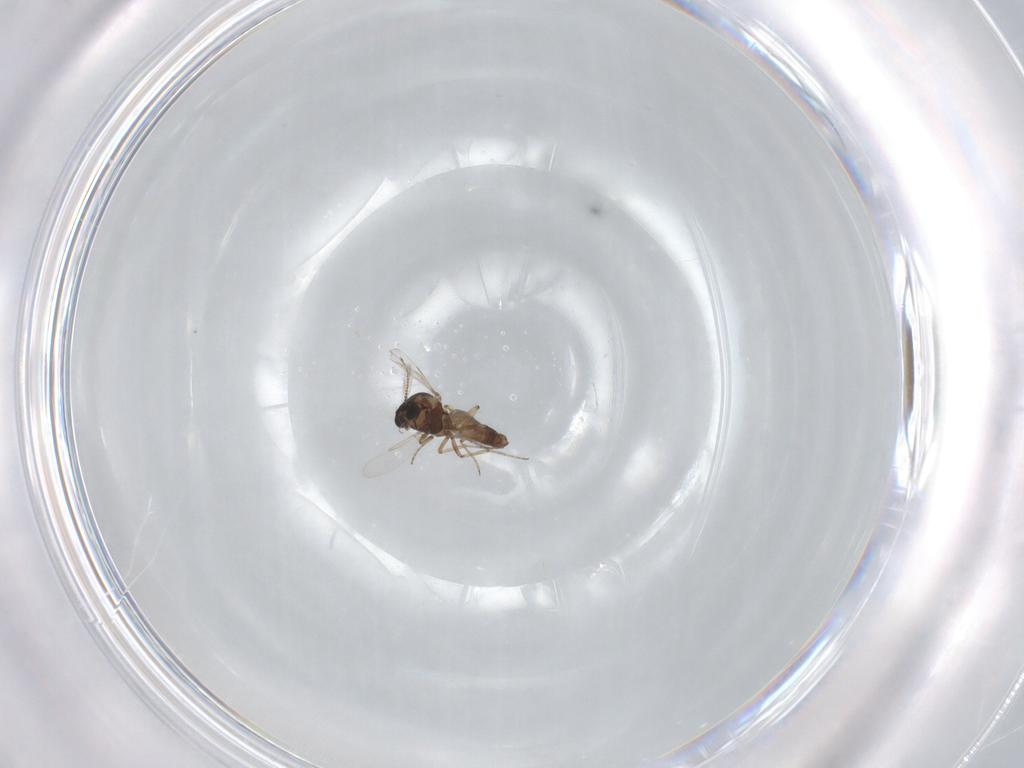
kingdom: Animalia
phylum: Arthropoda
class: Insecta
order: Diptera
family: Ceratopogonidae
